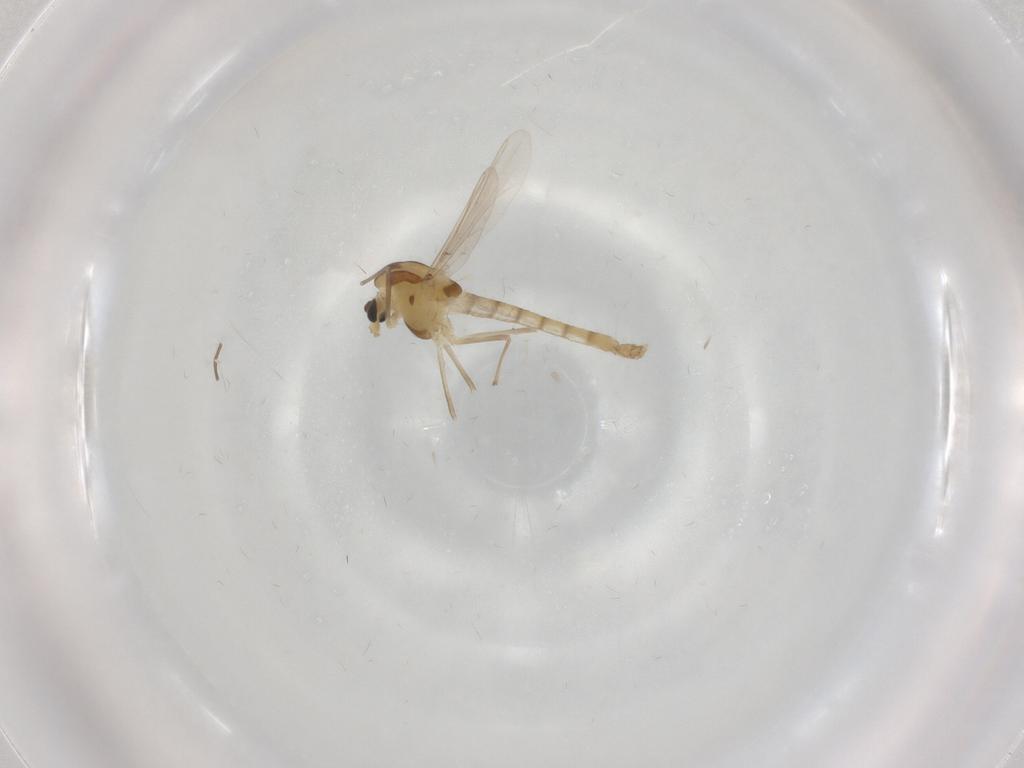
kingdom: Animalia
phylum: Arthropoda
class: Insecta
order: Diptera
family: Chironomidae
